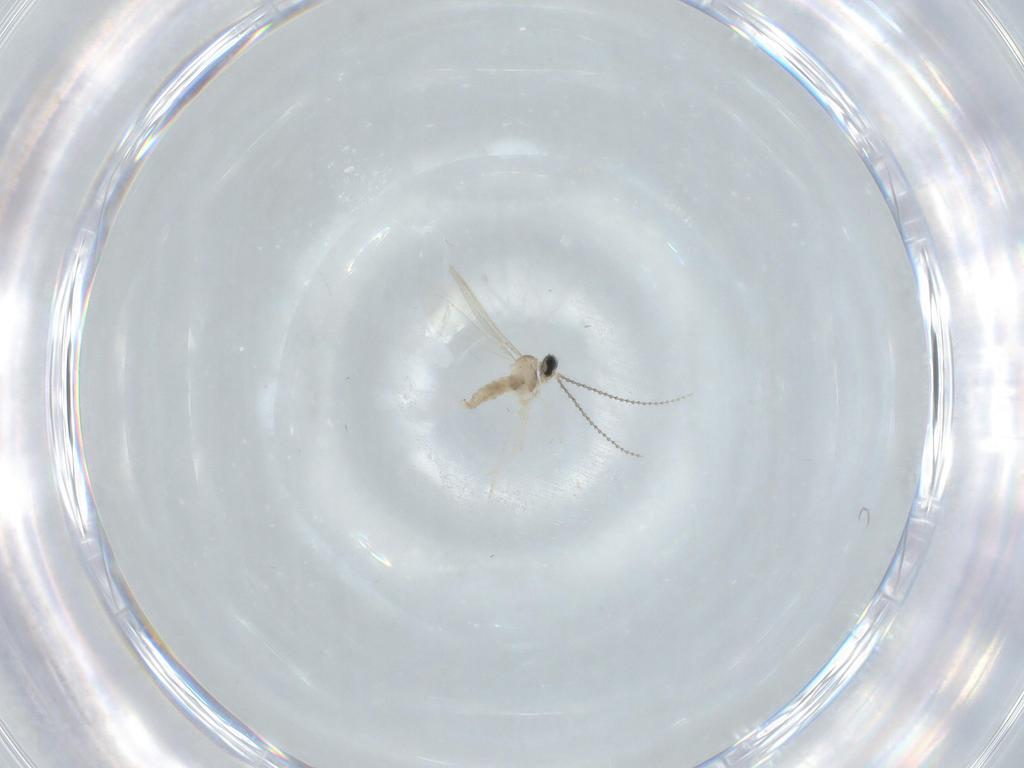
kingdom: Animalia
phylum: Arthropoda
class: Insecta
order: Diptera
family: Cecidomyiidae
